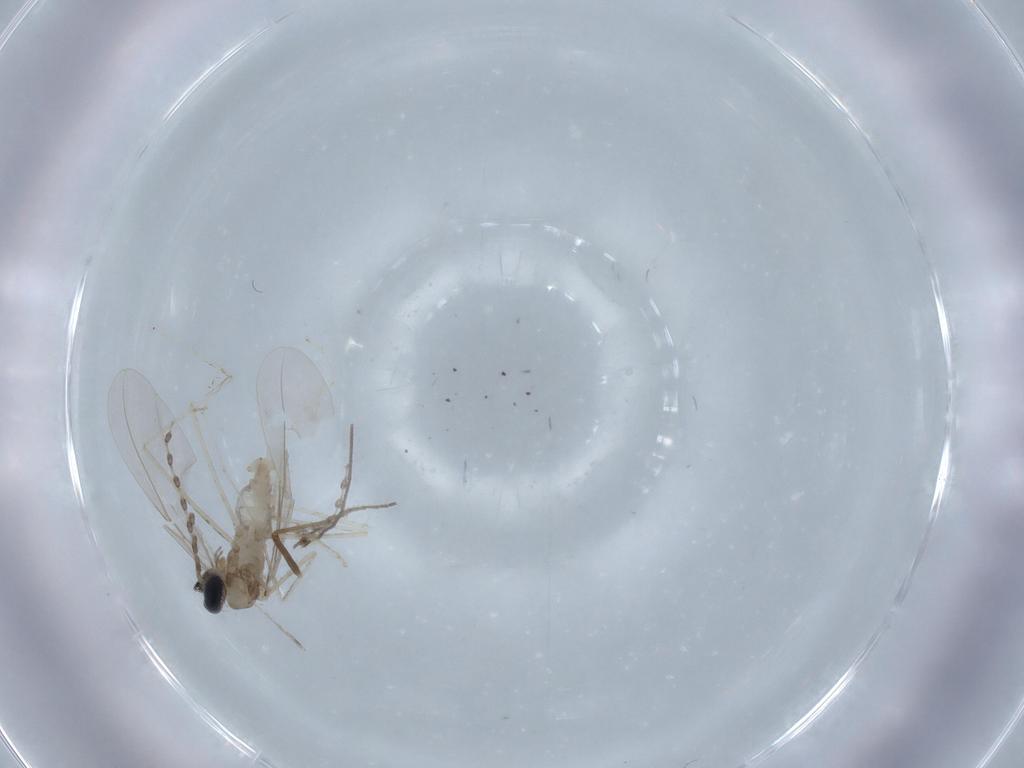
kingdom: Animalia
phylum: Arthropoda
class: Insecta
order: Diptera
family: Cecidomyiidae
